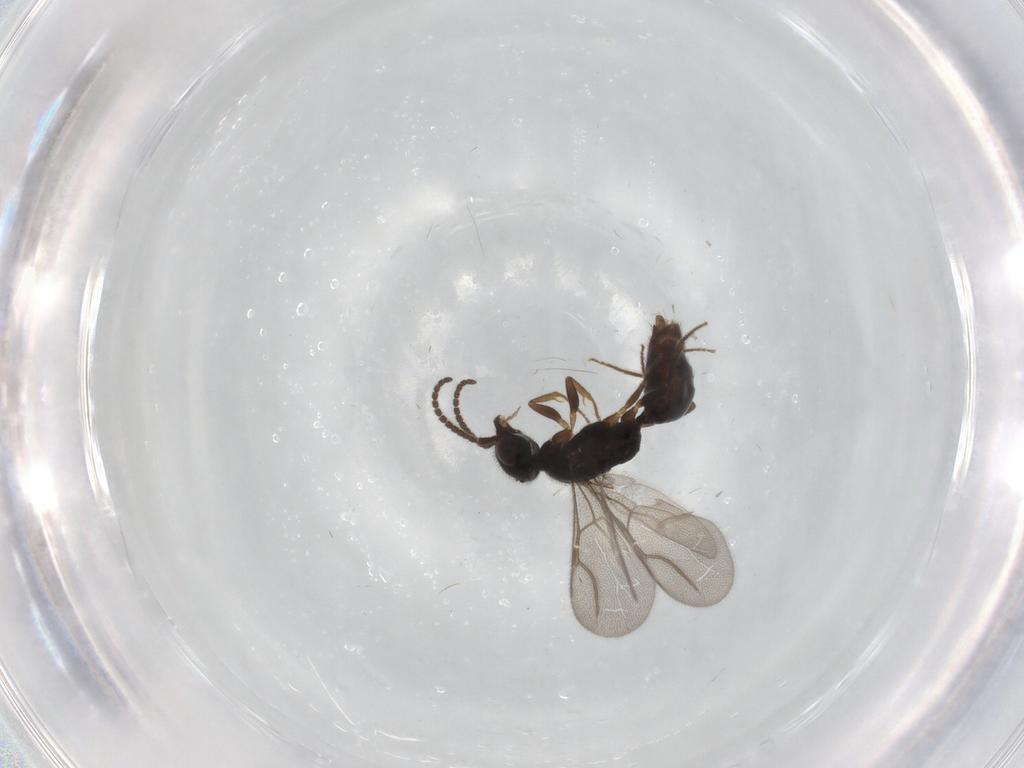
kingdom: Animalia
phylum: Arthropoda
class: Insecta
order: Hymenoptera
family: Bethylidae
